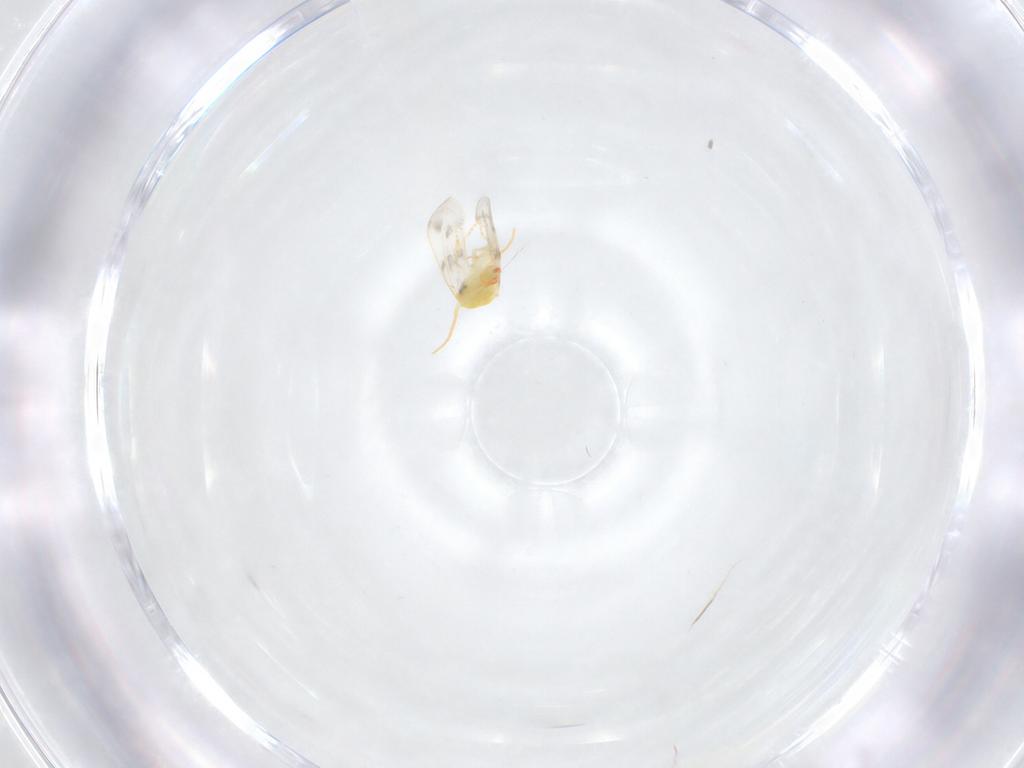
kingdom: Animalia
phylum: Arthropoda
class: Insecta
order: Hemiptera
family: Aleyrodidae
